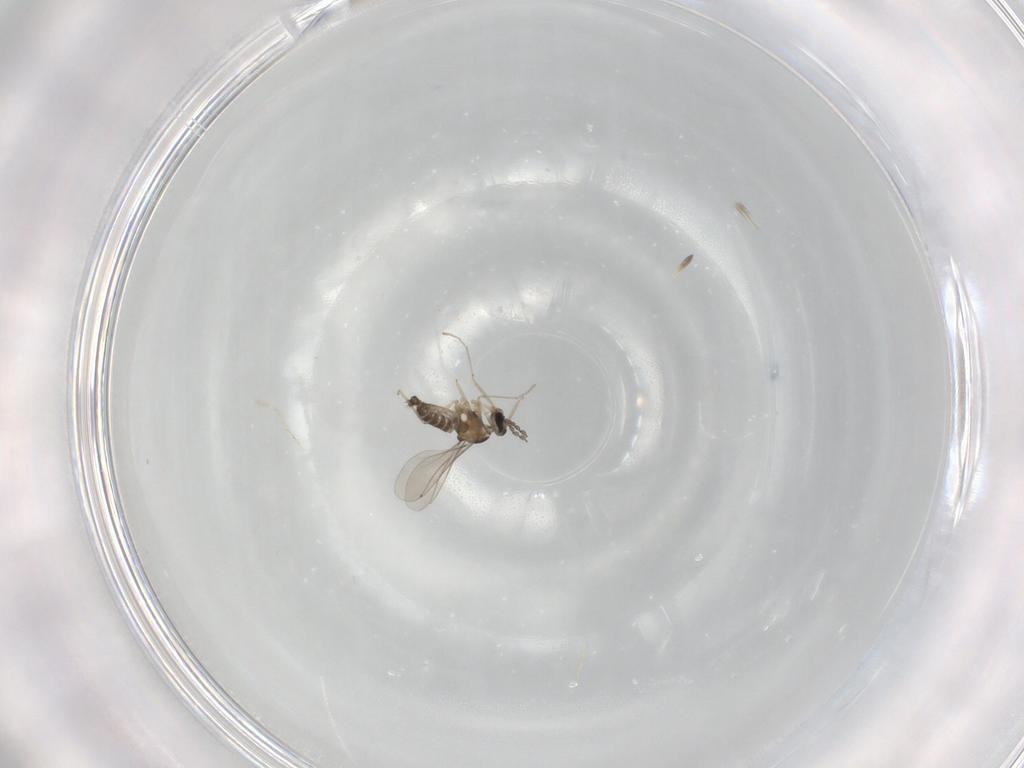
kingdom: Animalia
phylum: Arthropoda
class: Insecta
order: Diptera
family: Cecidomyiidae
